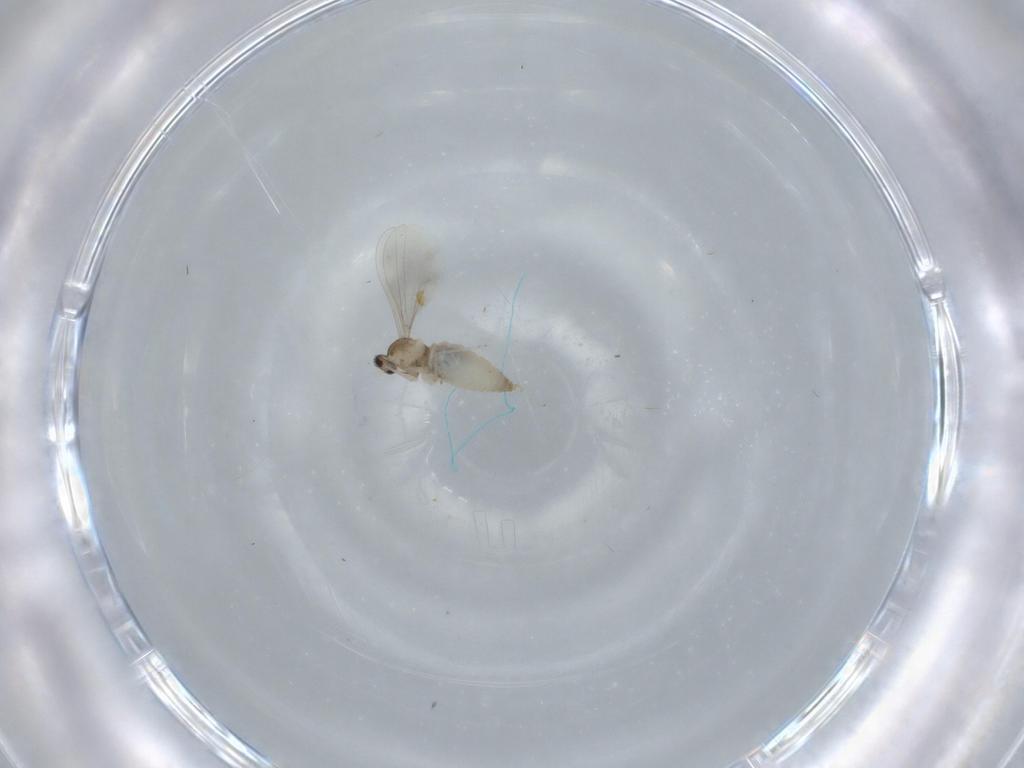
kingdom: Animalia
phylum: Arthropoda
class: Insecta
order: Diptera
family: Cecidomyiidae
